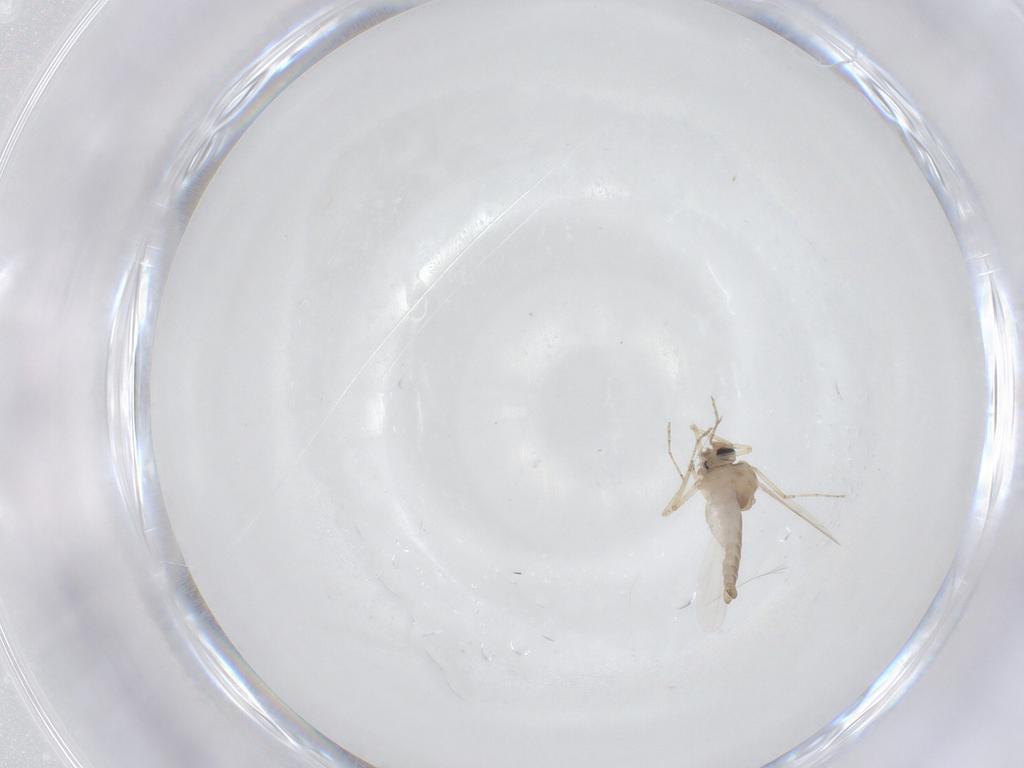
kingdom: Animalia
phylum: Arthropoda
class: Insecta
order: Diptera
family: Ceratopogonidae
